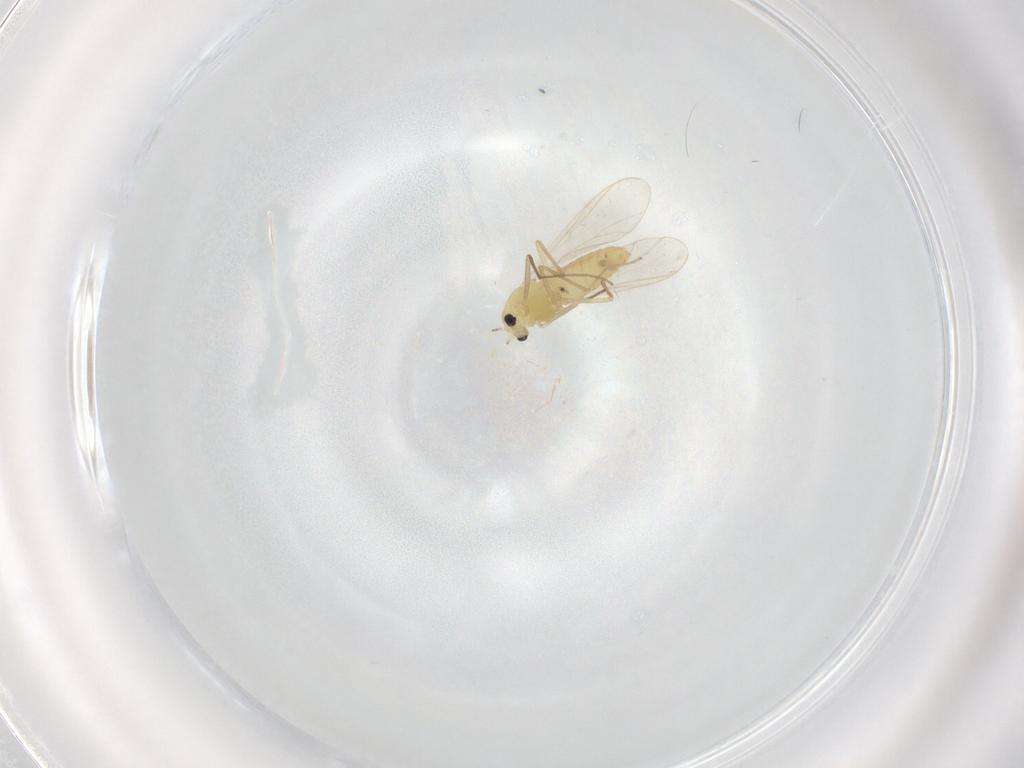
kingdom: Animalia
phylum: Arthropoda
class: Insecta
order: Diptera
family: Chironomidae
